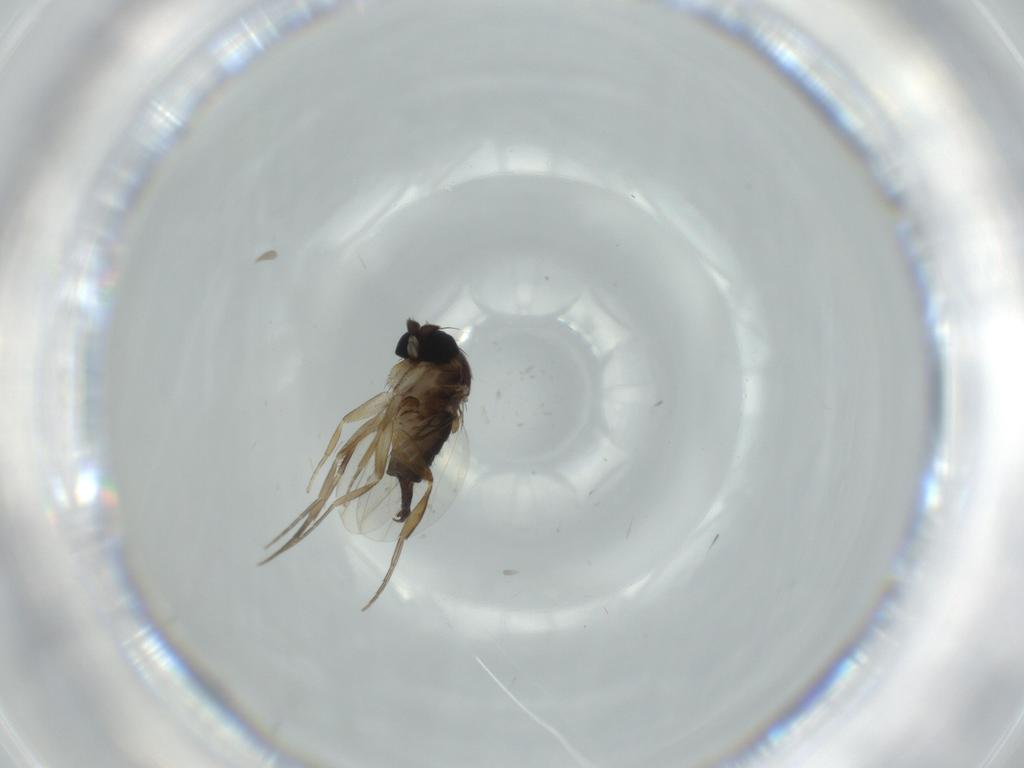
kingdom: Animalia
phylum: Arthropoda
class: Insecta
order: Diptera
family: Phoridae
